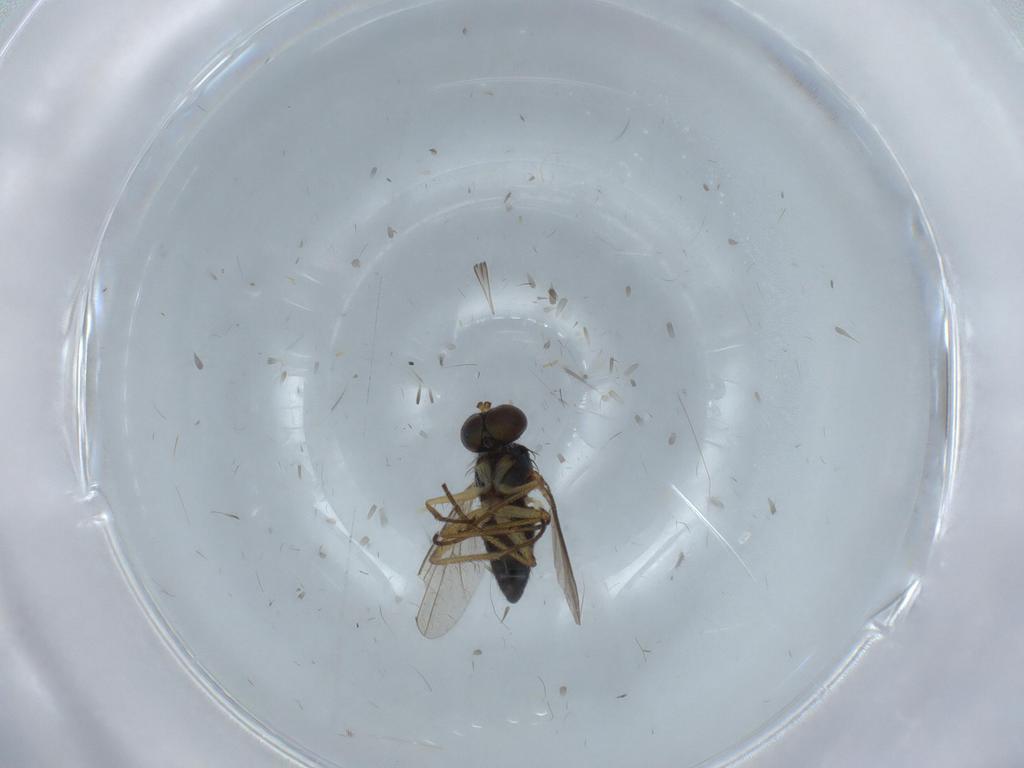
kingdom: Animalia
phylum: Arthropoda
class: Insecta
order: Diptera
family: Dolichopodidae
